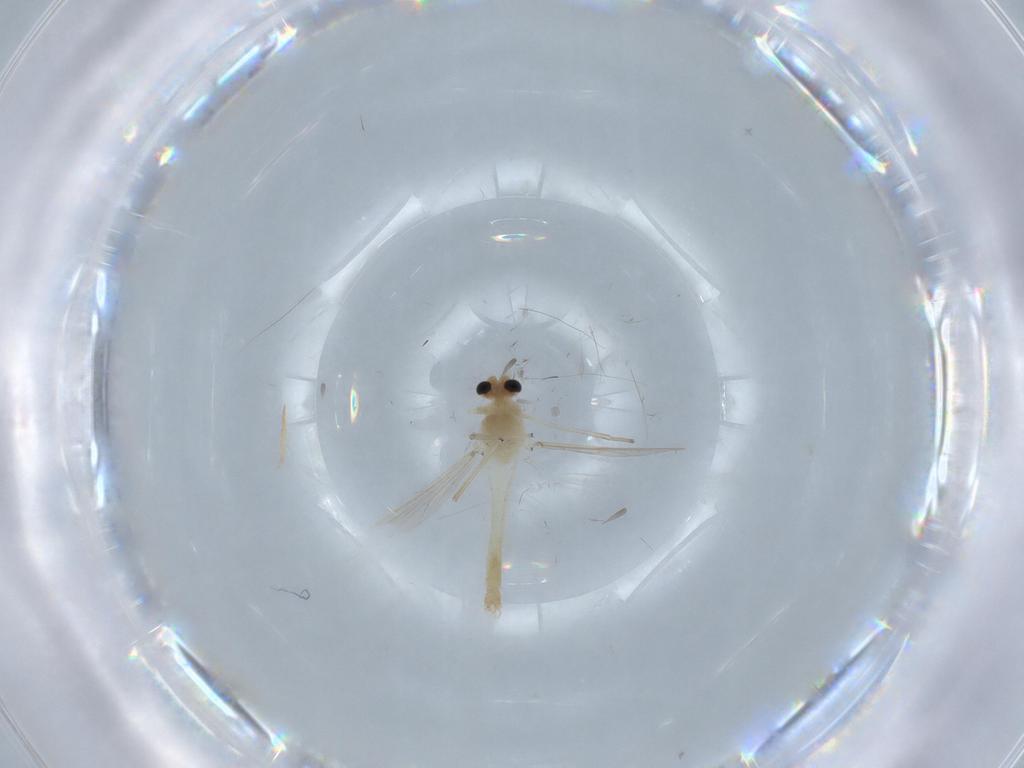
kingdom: Animalia
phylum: Arthropoda
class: Insecta
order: Diptera
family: Chironomidae
